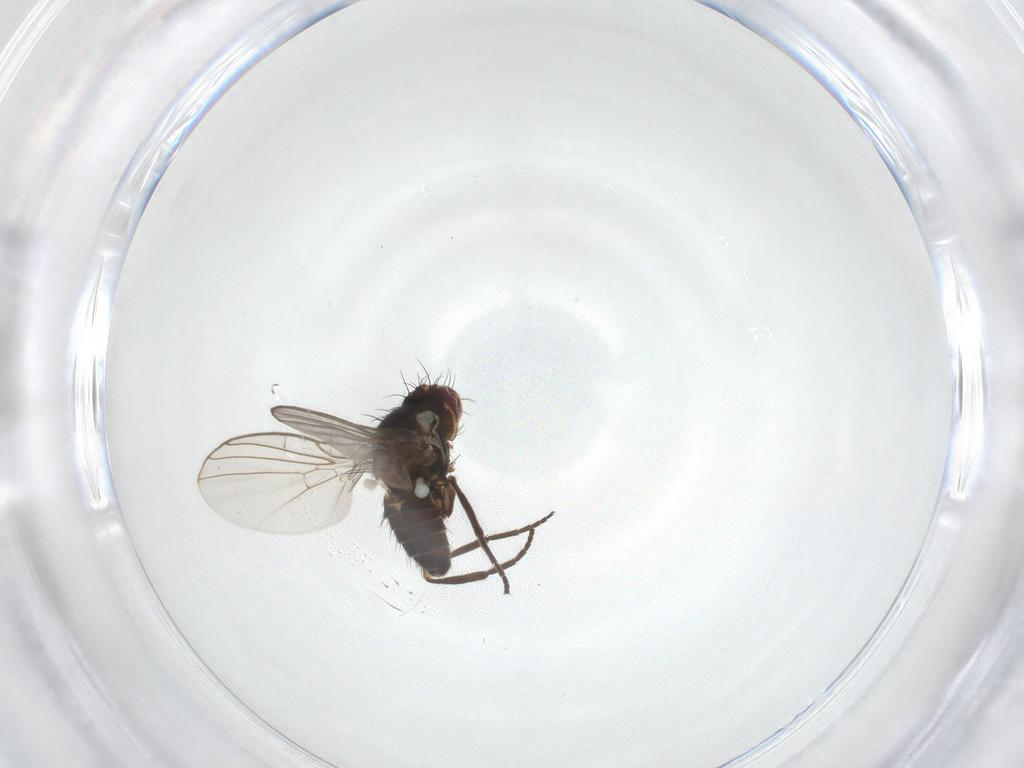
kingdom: Animalia
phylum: Arthropoda
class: Insecta
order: Diptera
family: Agromyzidae
